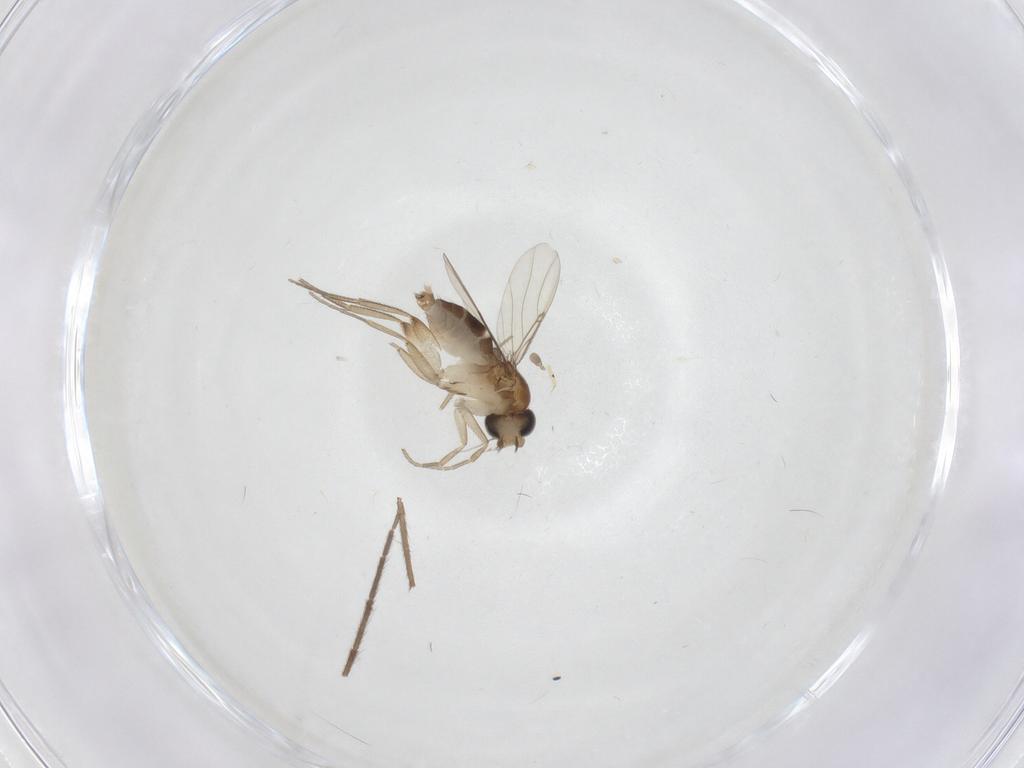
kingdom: Animalia
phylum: Arthropoda
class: Insecta
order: Diptera
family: Phoridae
